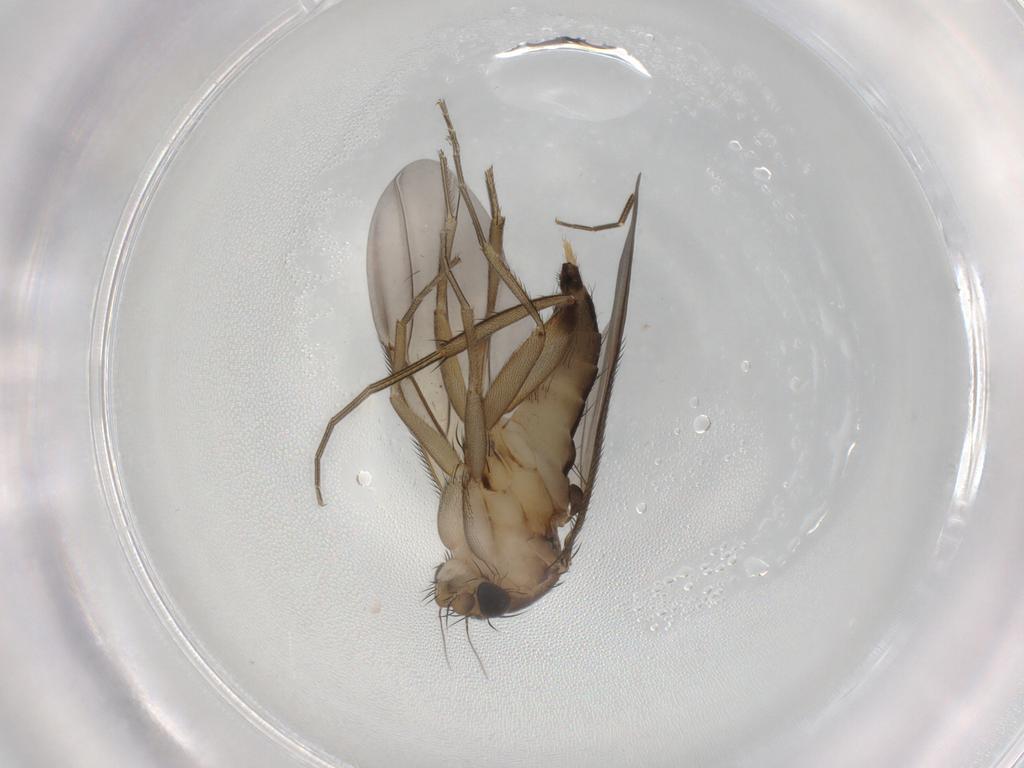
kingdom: Animalia
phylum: Arthropoda
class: Insecta
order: Diptera
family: Phoridae
